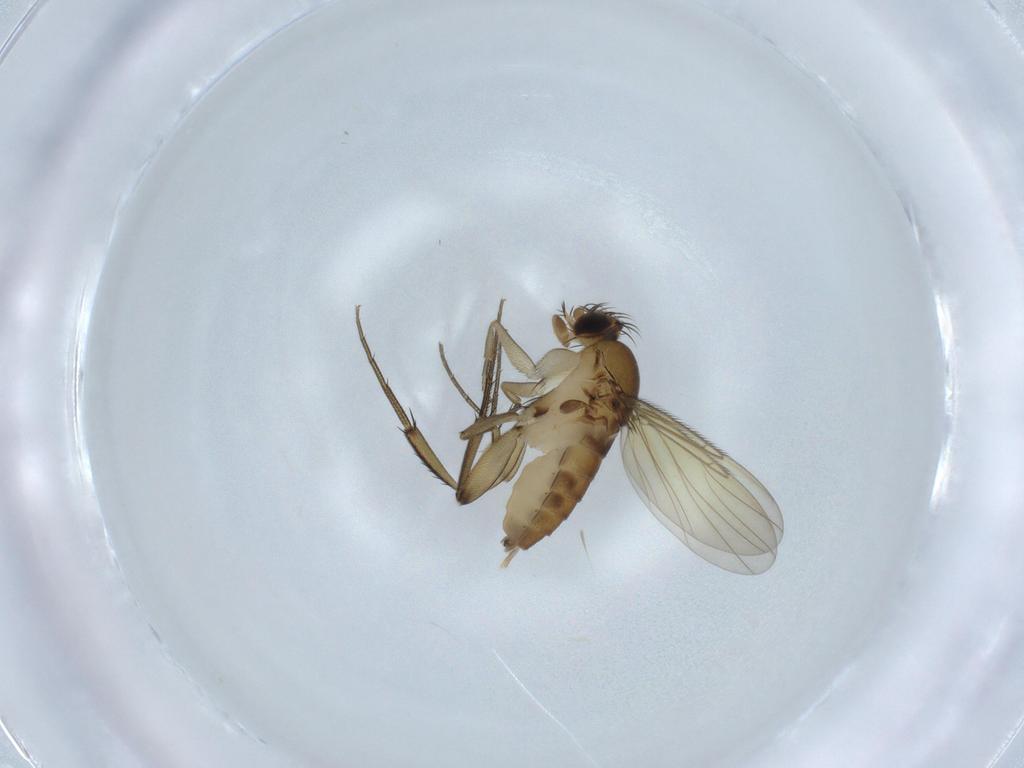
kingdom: Animalia
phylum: Arthropoda
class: Insecta
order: Diptera
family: Phoridae
